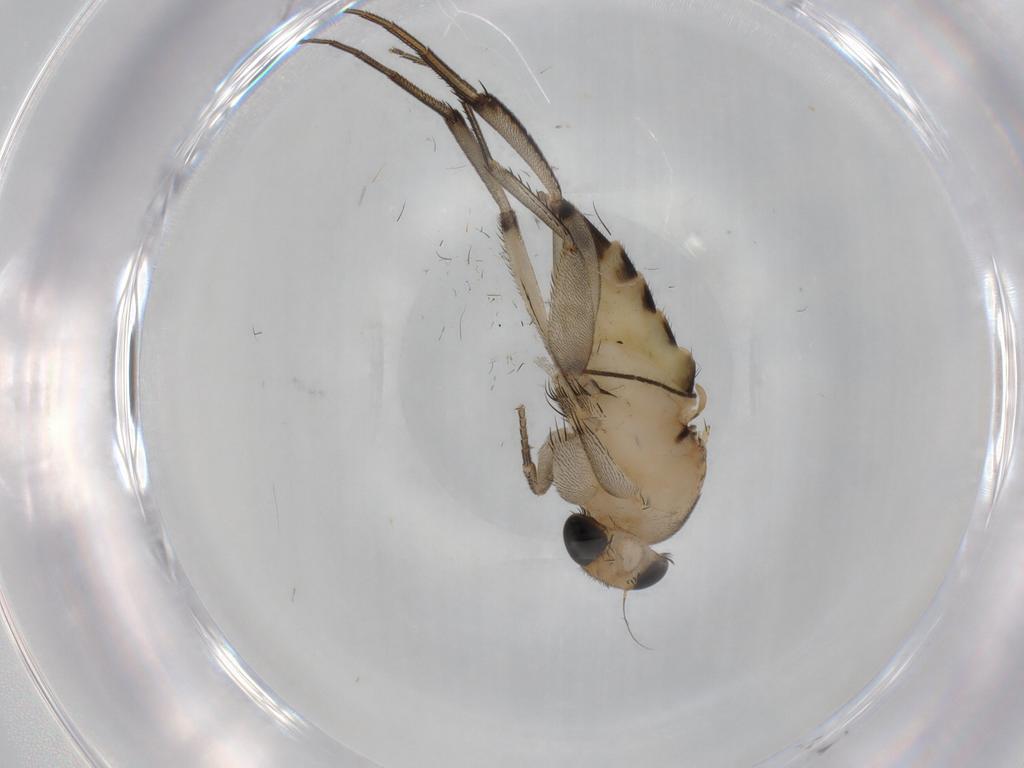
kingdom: Animalia
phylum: Arthropoda
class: Insecta
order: Diptera
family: Phoridae
